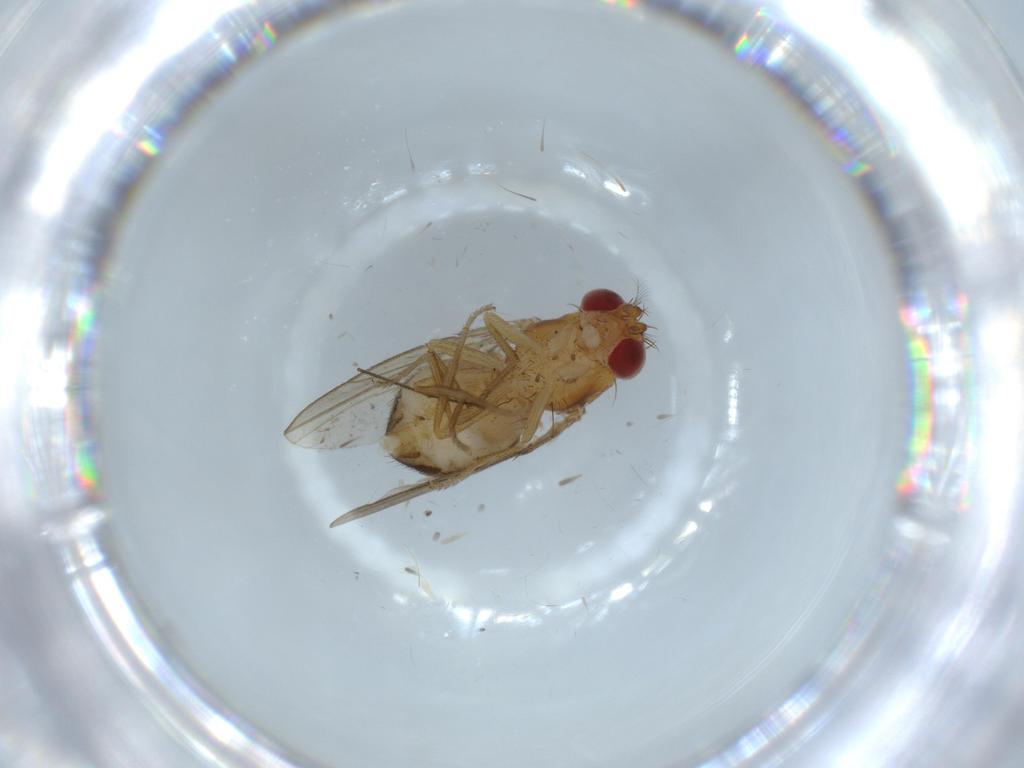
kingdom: Animalia
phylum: Arthropoda
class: Insecta
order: Diptera
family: Drosophilidae
